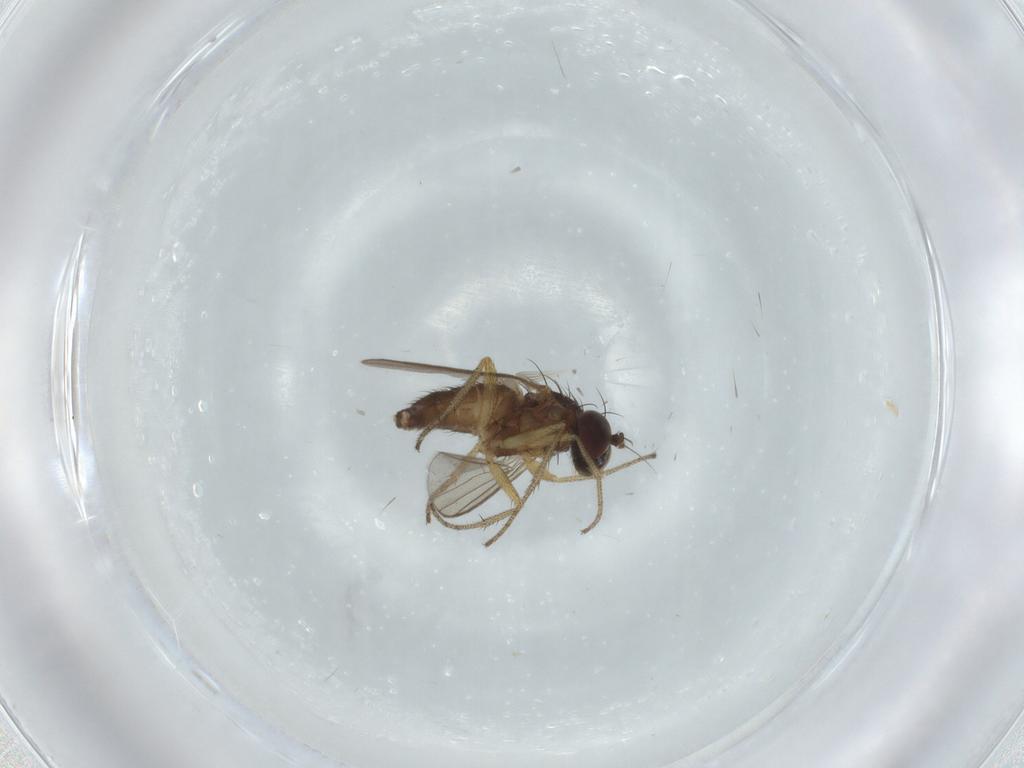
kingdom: Animalia
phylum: Arthropoda
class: Insecta
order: Diptera
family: Dolichopodidae
